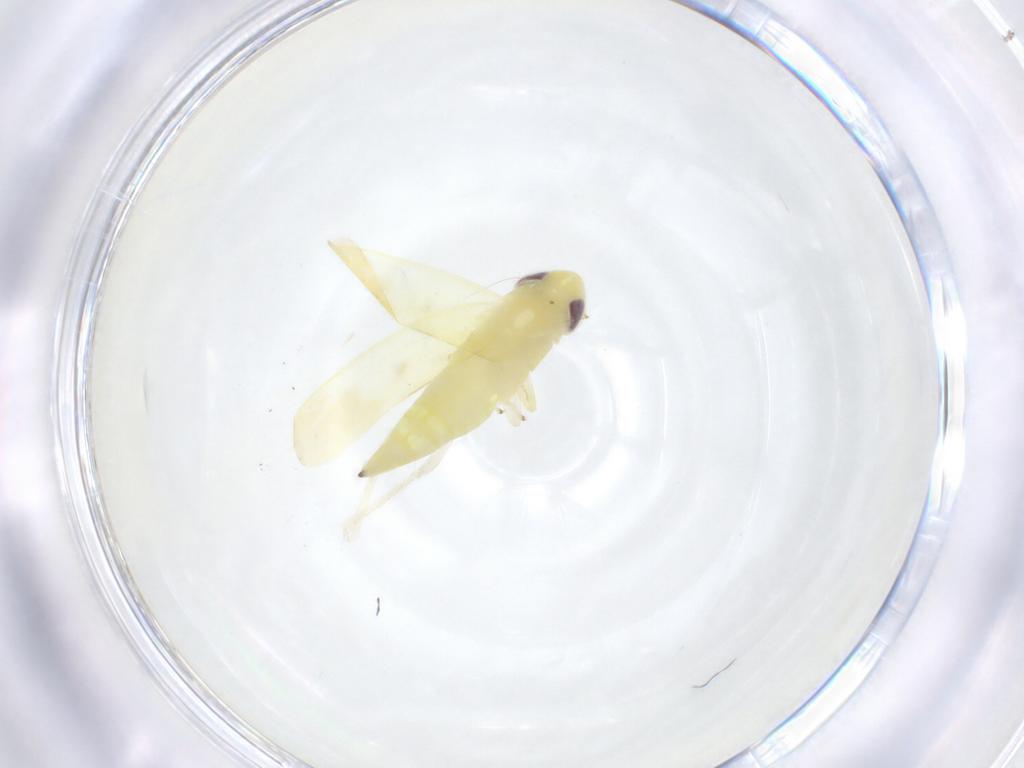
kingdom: Animalia
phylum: Arthropoda
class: Insecta
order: Hemiptera
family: Cicadellidae
